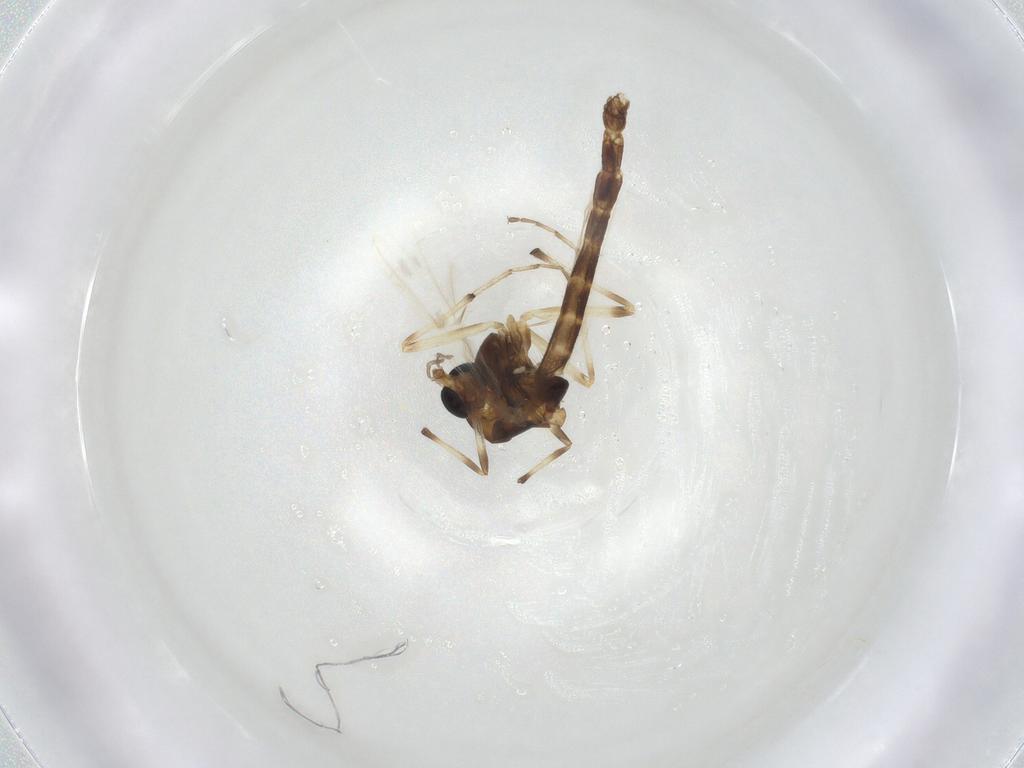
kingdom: Animalia
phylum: Arthropoda
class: Insecta
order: Diptera
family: Chironomidae
